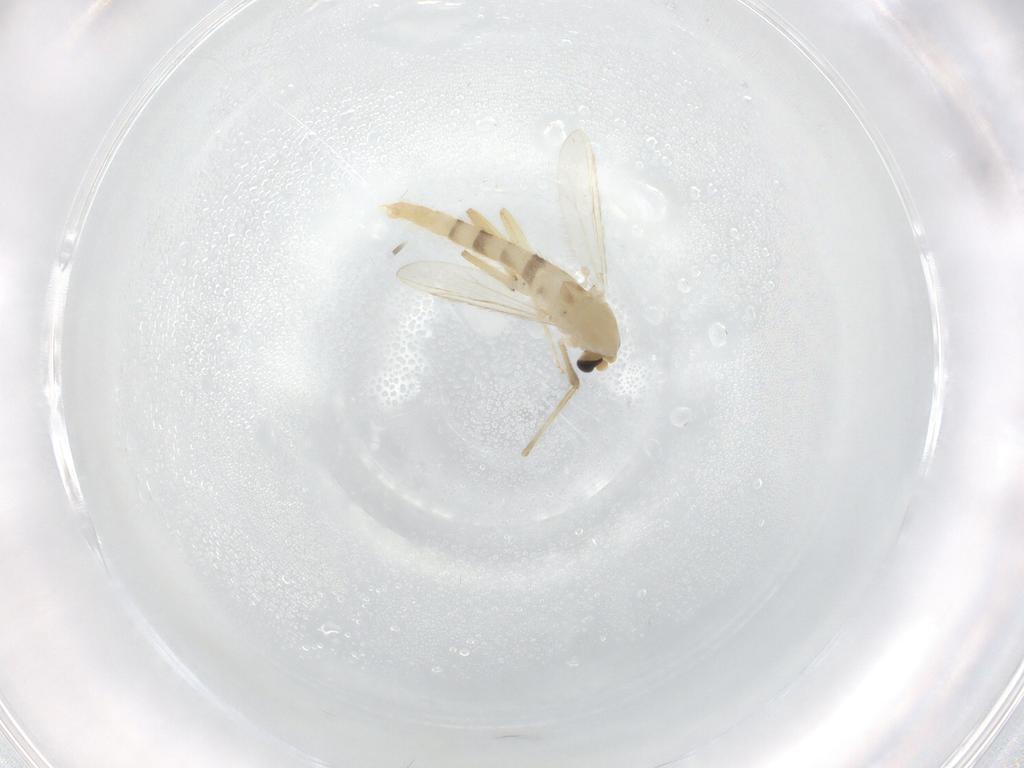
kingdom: Animalia
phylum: Arthropoda
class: Insecta
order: Diptera
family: Chironomidae
